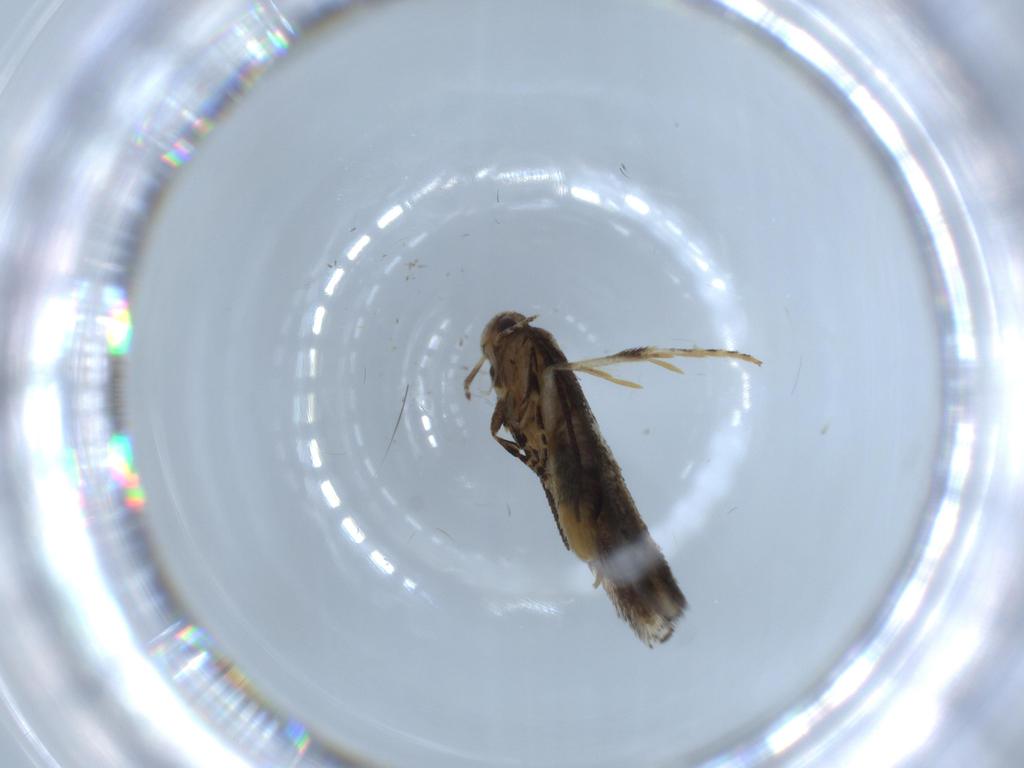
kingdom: Animalia
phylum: Arthropoda
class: Insecta
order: Lepidoptera
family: Elachistidae
